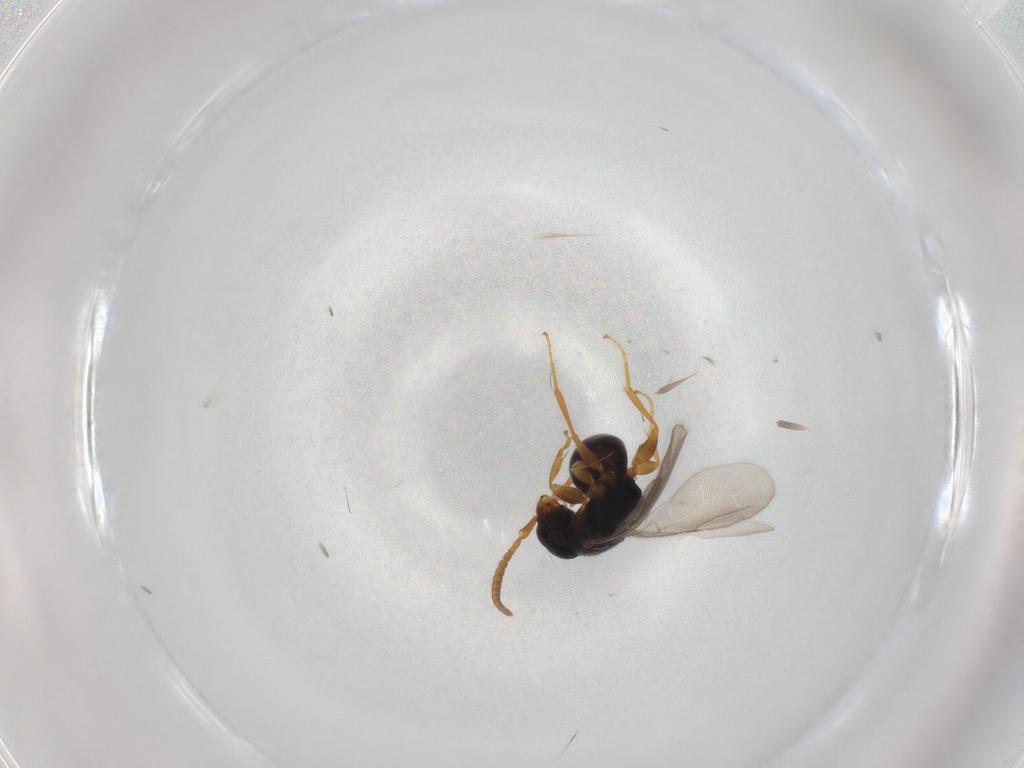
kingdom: Animalia
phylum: Arthropoda
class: Insecta
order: Hymenoptera
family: Bethylidae
